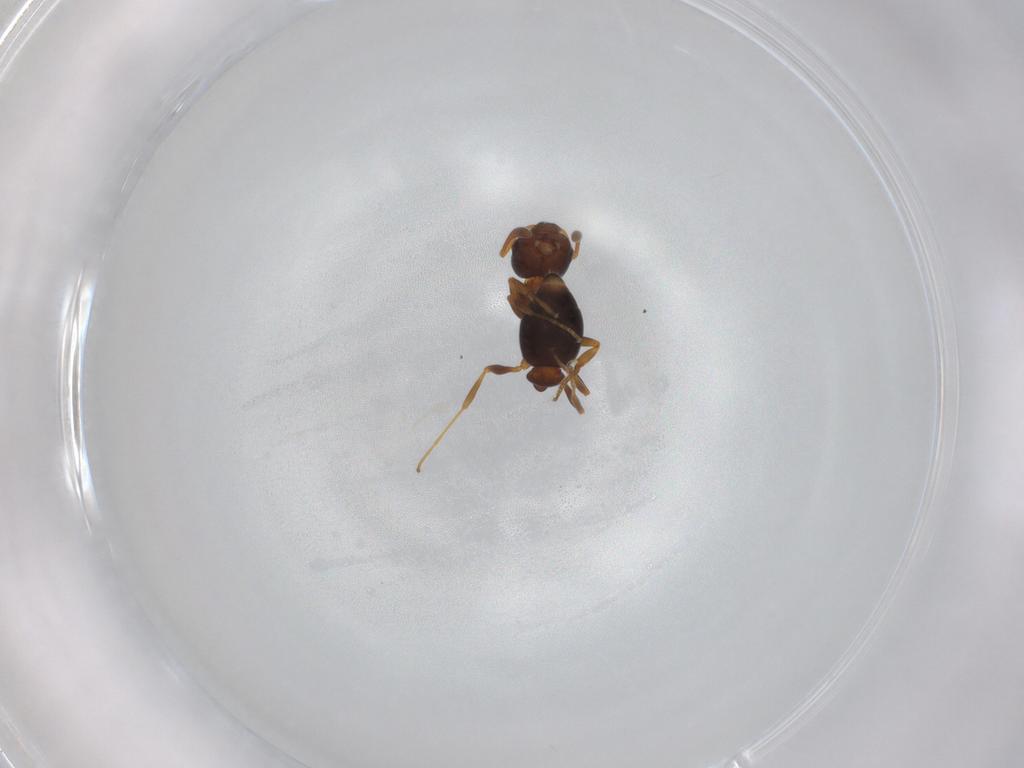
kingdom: Animalia
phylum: Arthropoda
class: Insecta
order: Hymenoptera
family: Formicidae
